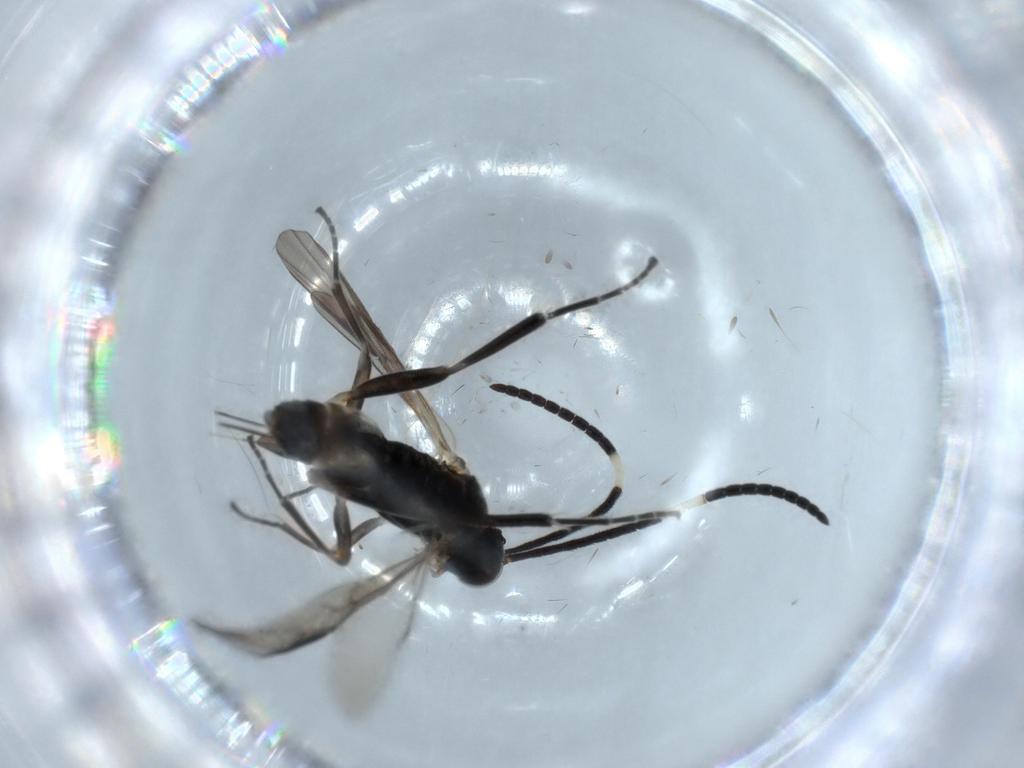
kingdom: Animalia
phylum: Arthropoda
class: Insecta
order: Lepidoptera
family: Tortricidae
